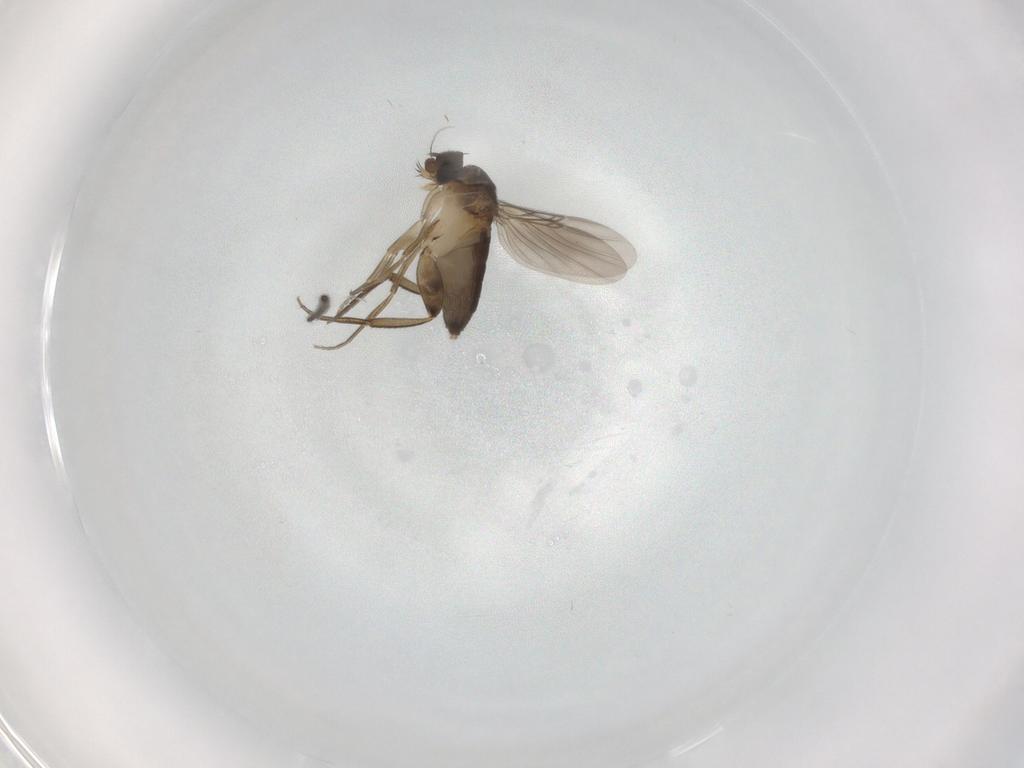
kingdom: Animalia
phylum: Arthropoda
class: Insecta
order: Diptera
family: Phoridae
